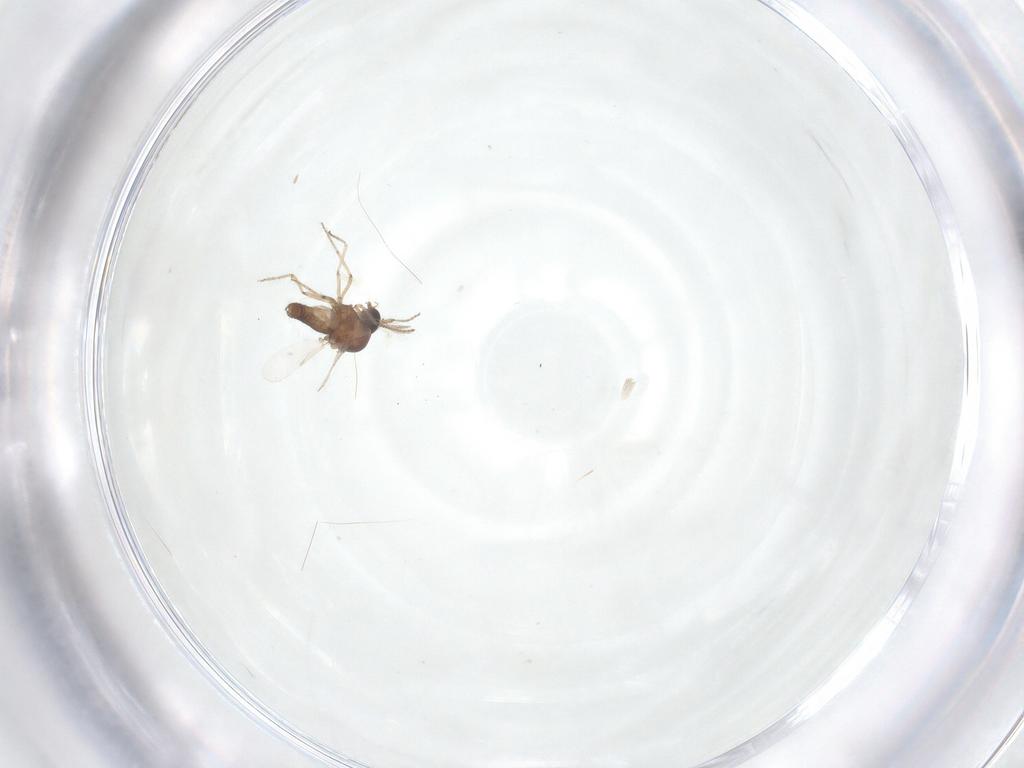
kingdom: Animalia
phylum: Arthropoda
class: Insecta
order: Diptera
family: Ceratopogonidae
